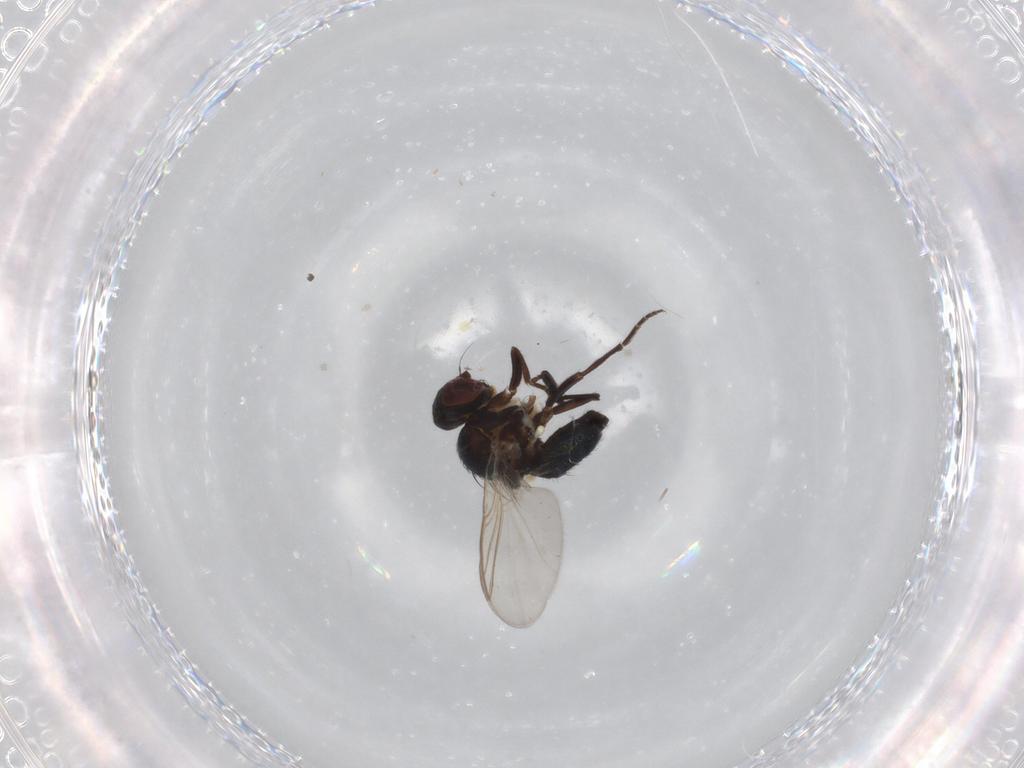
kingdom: Animalia
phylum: Arthropoda
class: Insecta
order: Diptera
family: Agromyzidae
